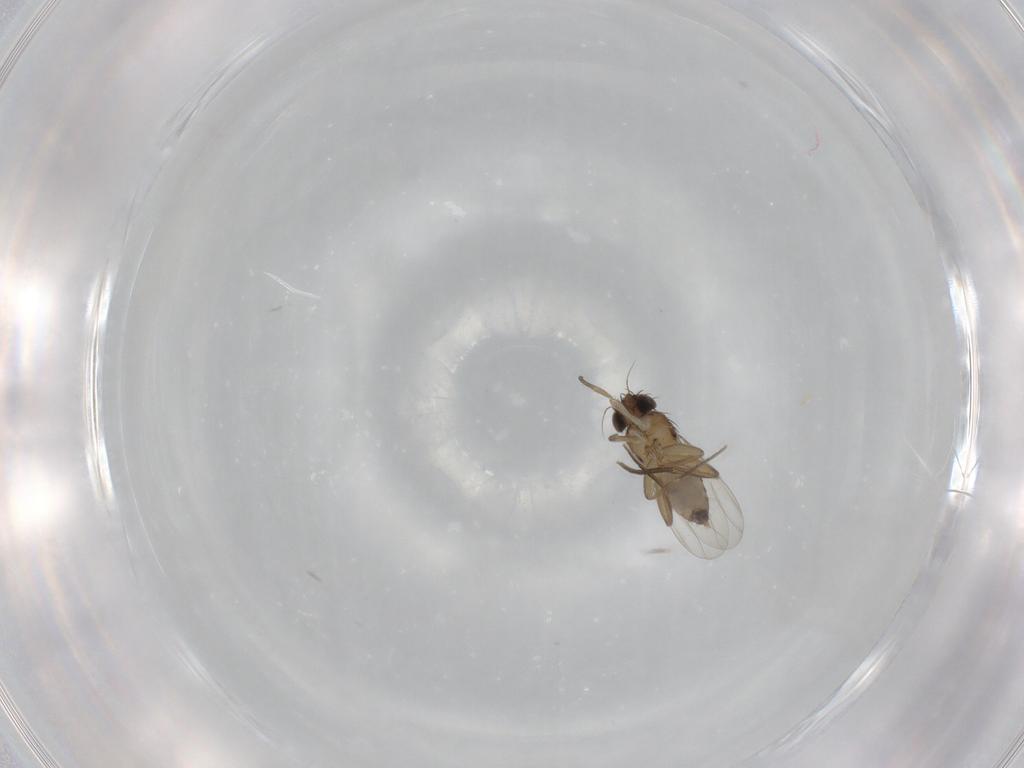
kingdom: Animalia
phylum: Arthropoda
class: Insecta
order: Diptera
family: Phoridae
